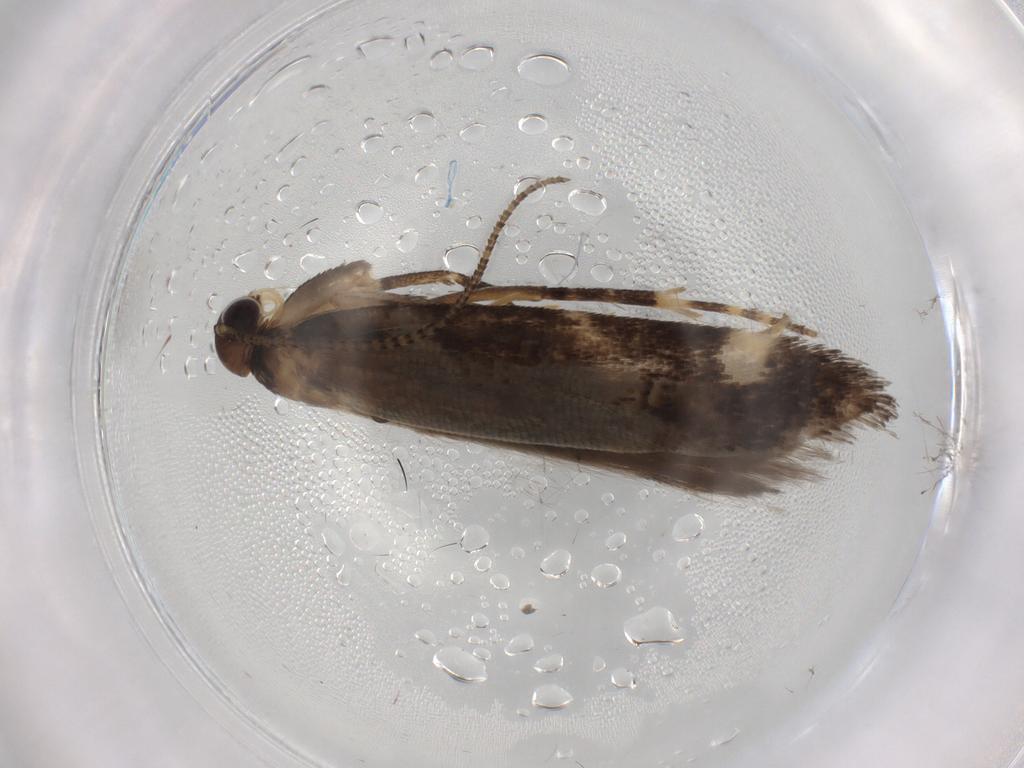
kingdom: Animalia
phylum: Arthropoda
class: Insecta
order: Lepidoptera
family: Gelechiidae
